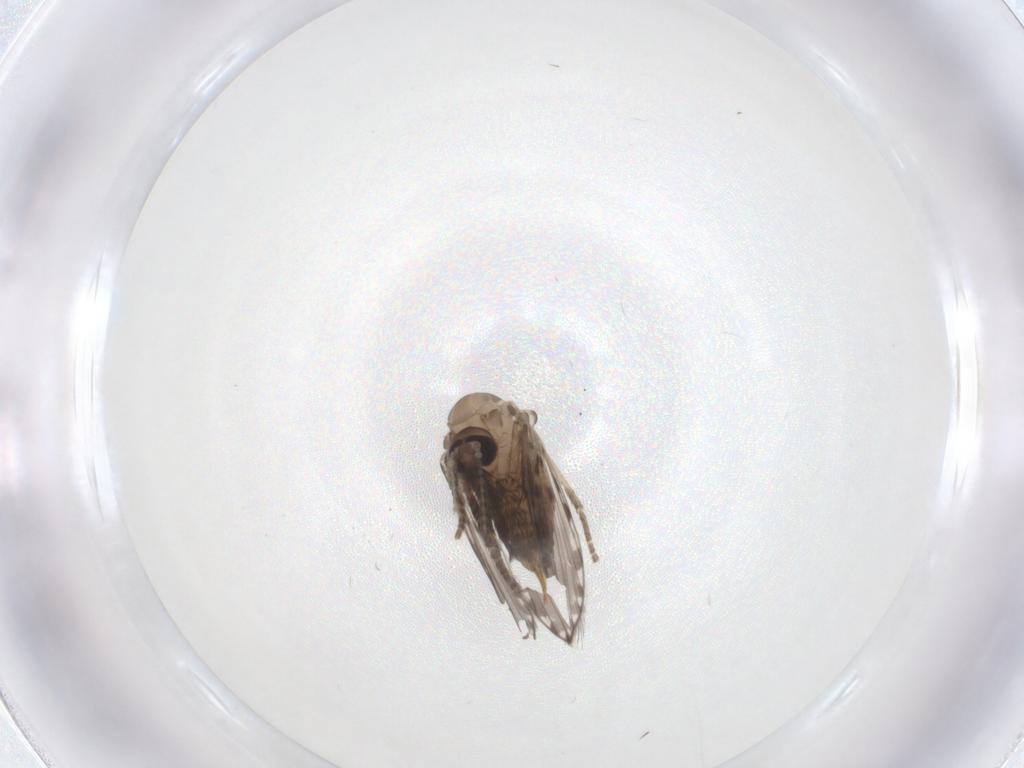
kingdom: Animalia
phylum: Arthropoda
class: Insecta
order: Diptera
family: Psychodidae
